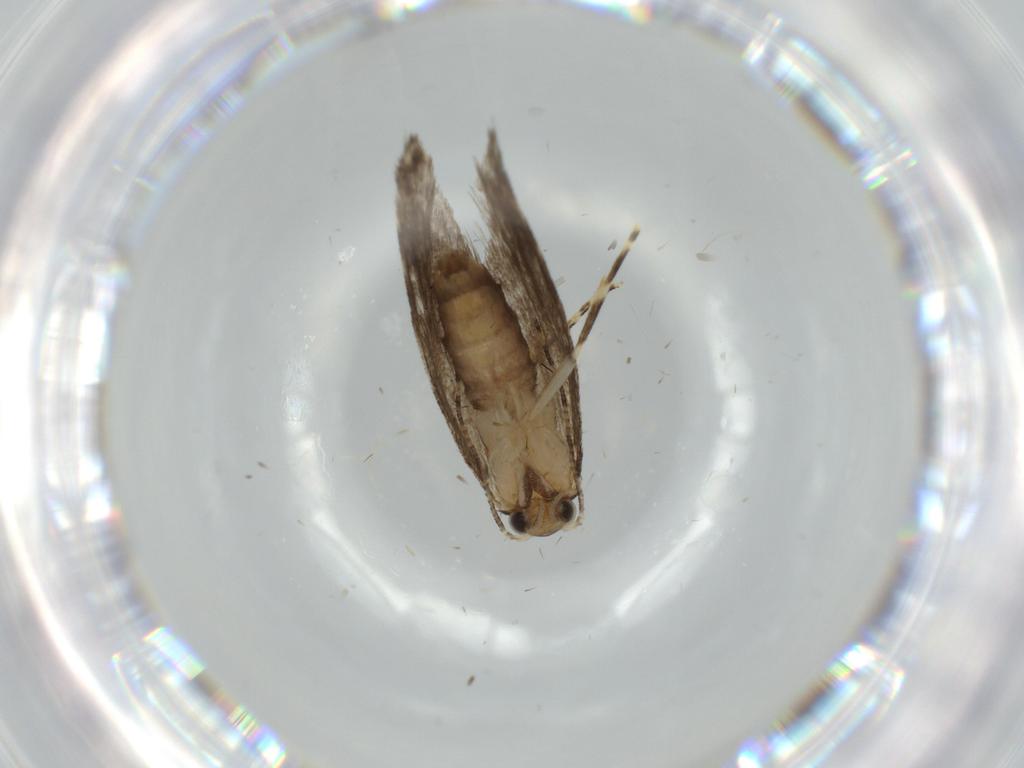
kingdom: Animalia
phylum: Arthropoda
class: Insecta
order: Lepidoptera
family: Tineidae
